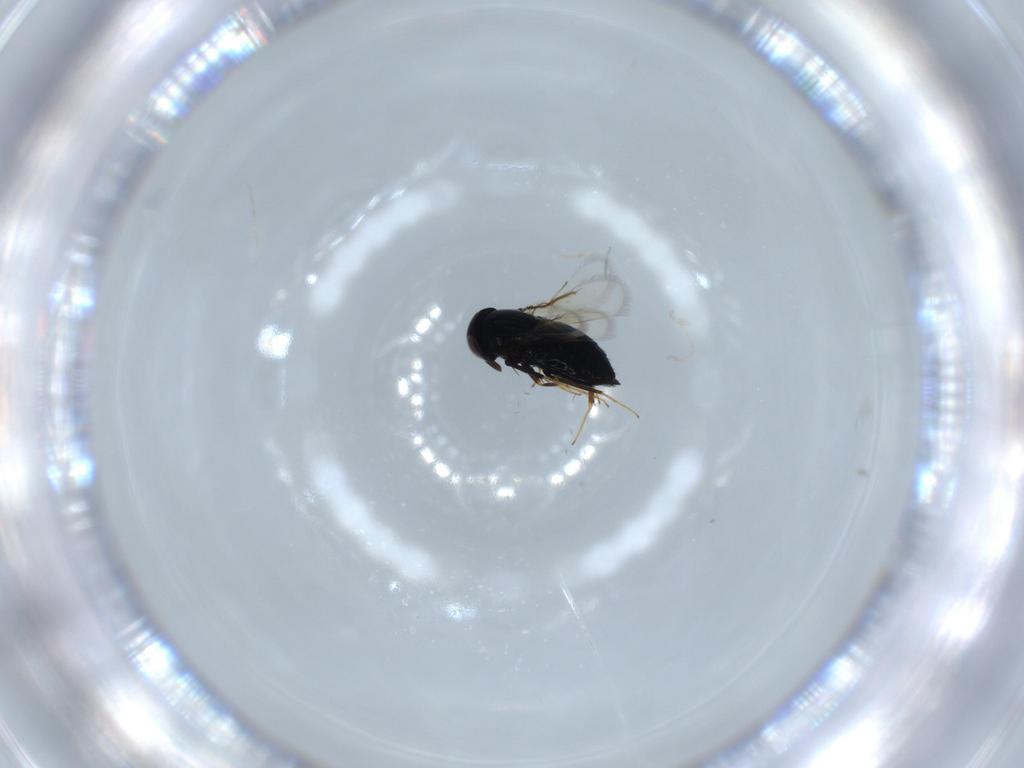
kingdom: Animalia
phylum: Arthropoda
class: Insecta
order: Hymenoptera
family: Signiphoridae
